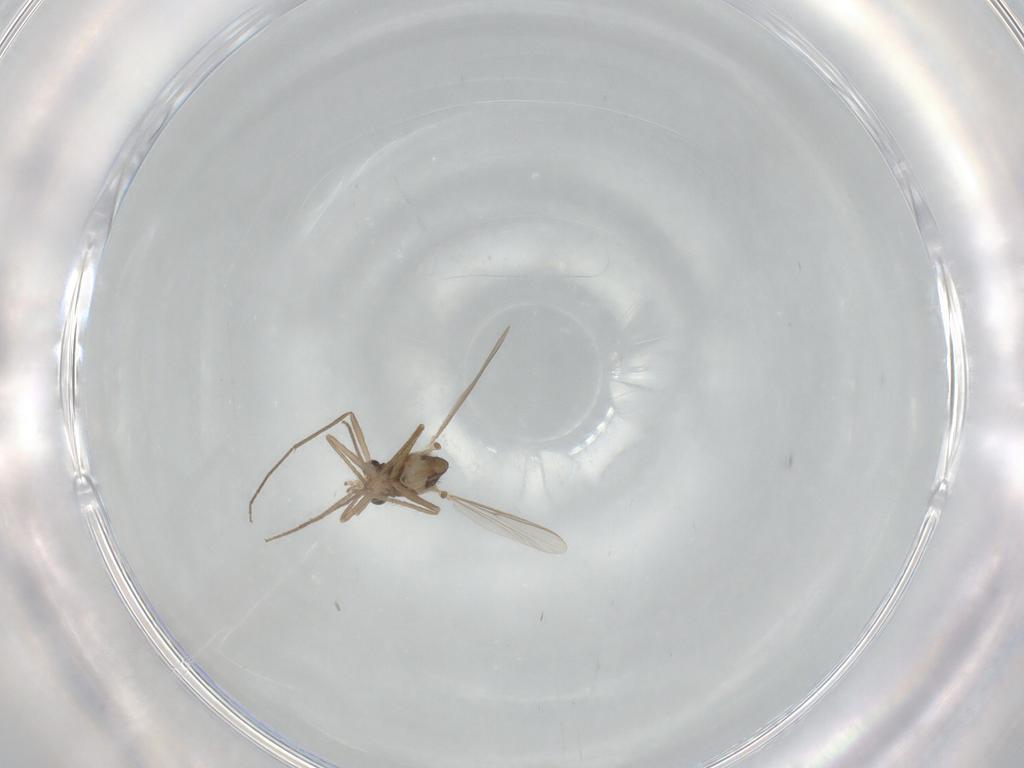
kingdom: Animalia
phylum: Arthropoda
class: Insecta
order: Diptera
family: Chironomidae
